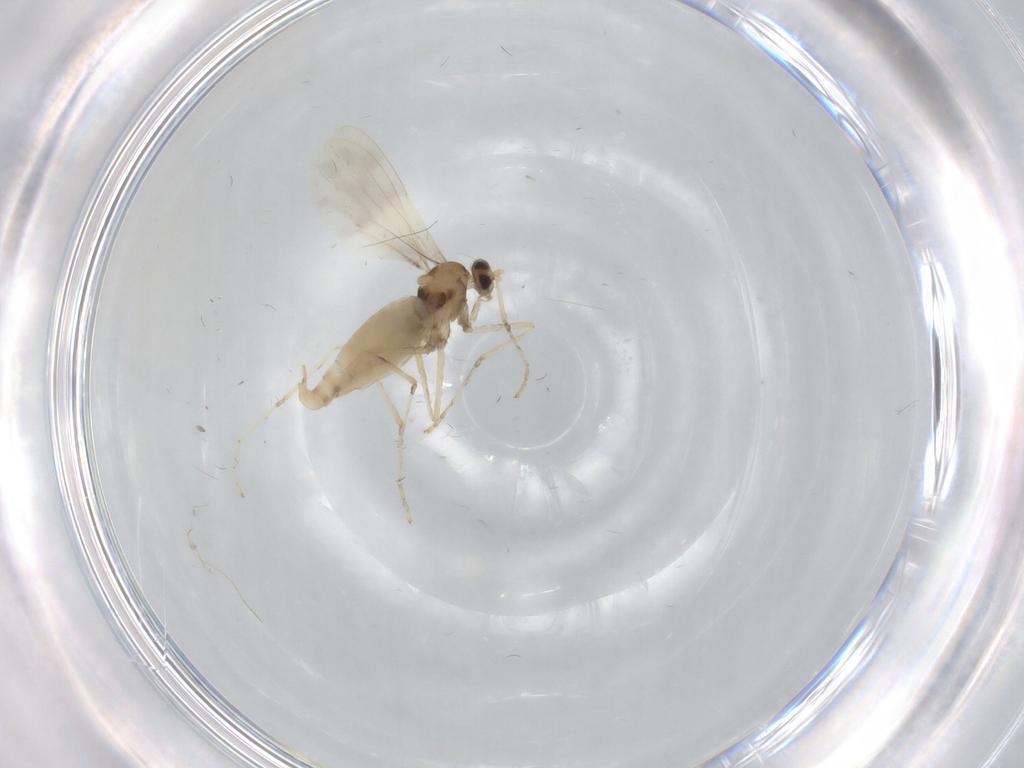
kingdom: Animalia
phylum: Arthropoda
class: Insecta
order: Diptera
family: Cecidomyiidae
